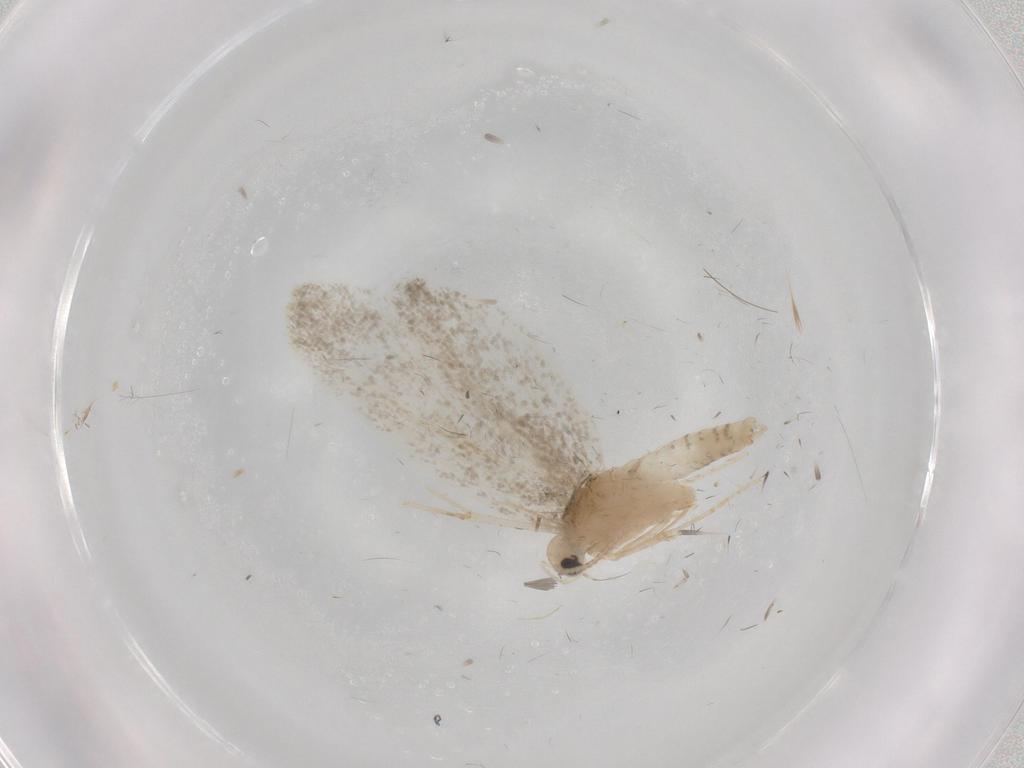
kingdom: Animalia
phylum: Arthropoda
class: Insecta
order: Lepidoptera
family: Psychidae
